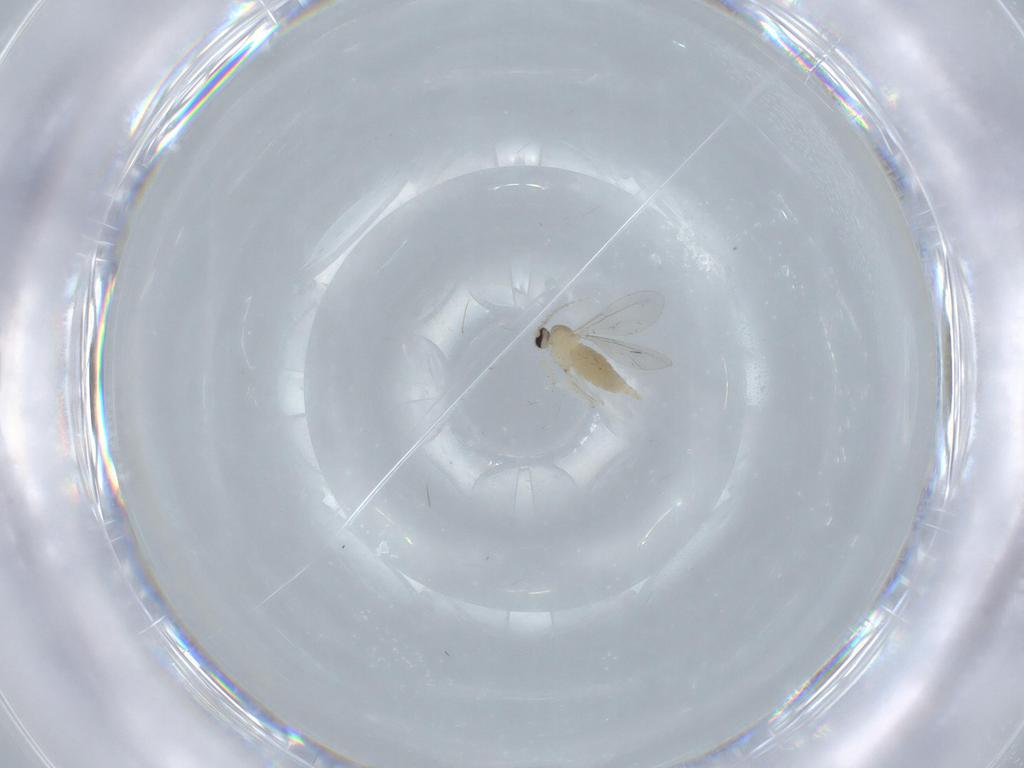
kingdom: Animalia
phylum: Arthropoda
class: Insecta
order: Diptera
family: Cecidomyiidae
